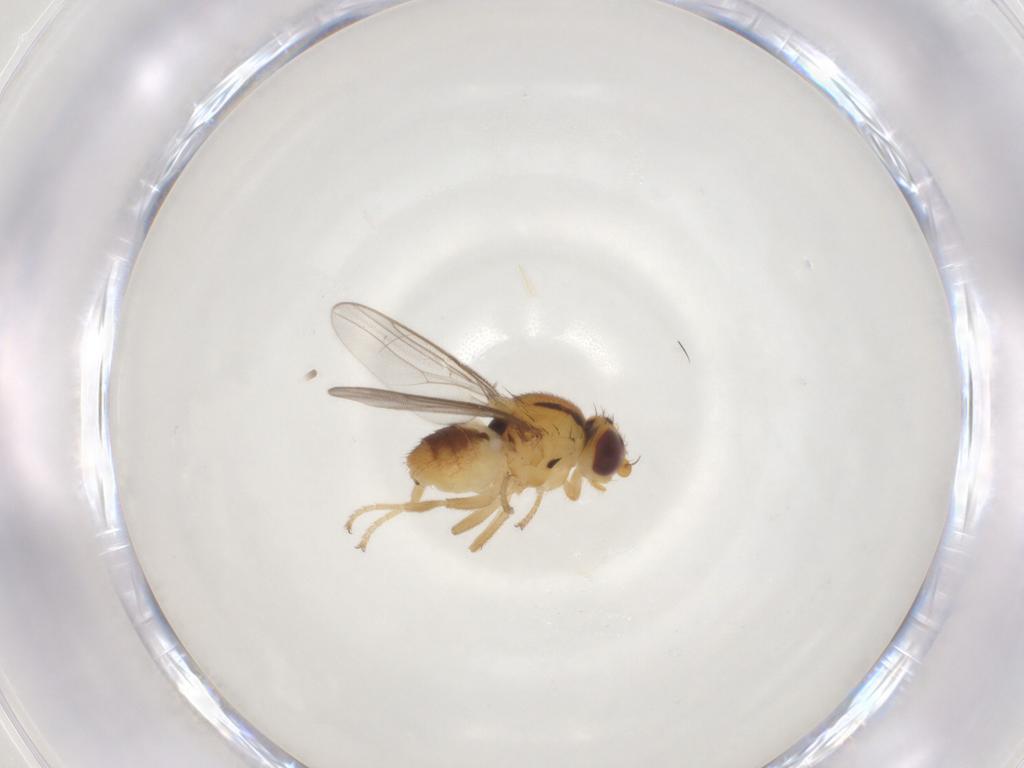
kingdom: Animalia
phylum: Arthropoda
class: Insecta
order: Diptera
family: Chloropidae
